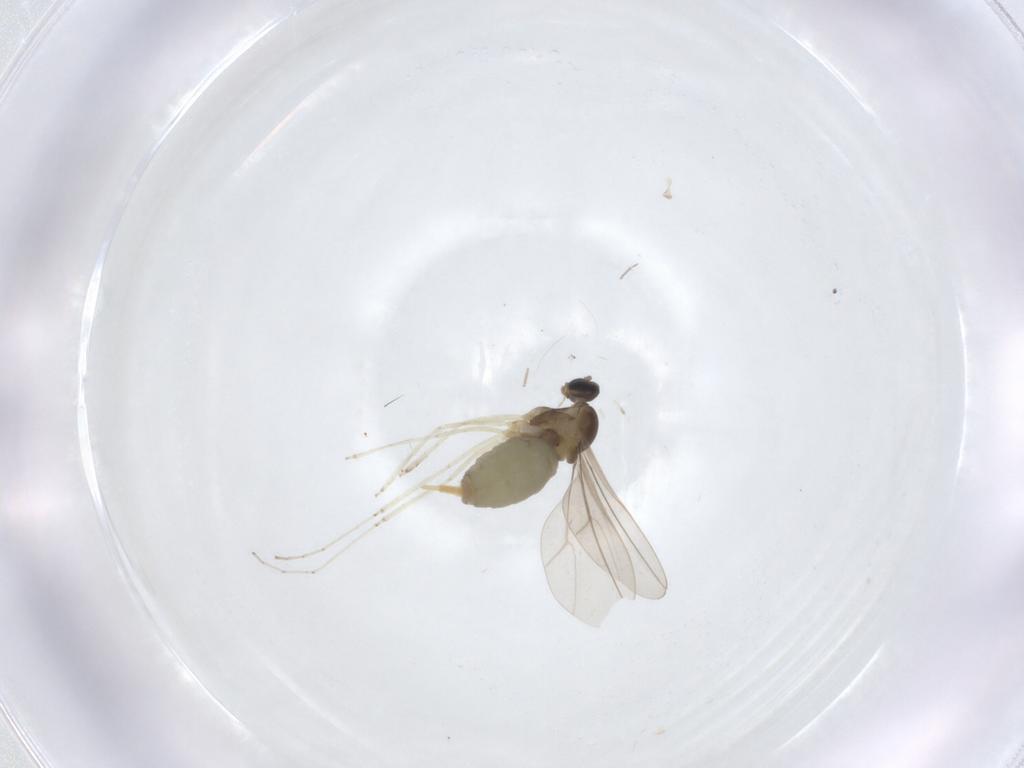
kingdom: Animalia
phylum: Arthropoda
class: Insecta
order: Diptera
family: Cecidomyiidae
